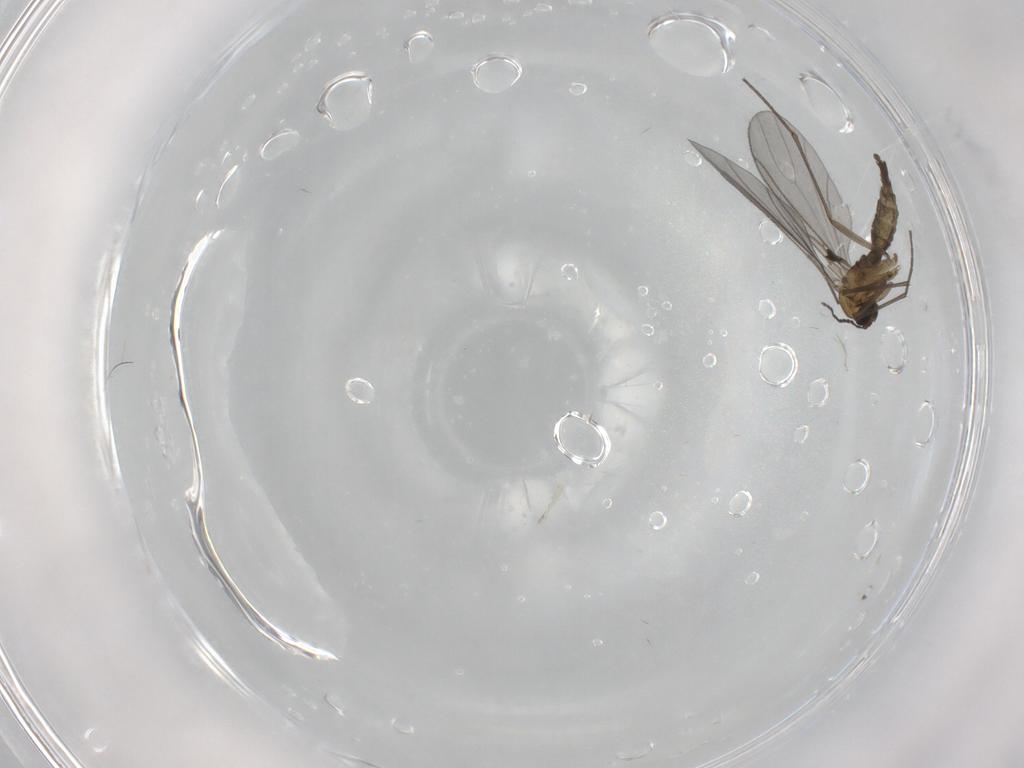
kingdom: Animalia
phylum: Arthropoda
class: Insecta
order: Diptera
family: Sciaridae
